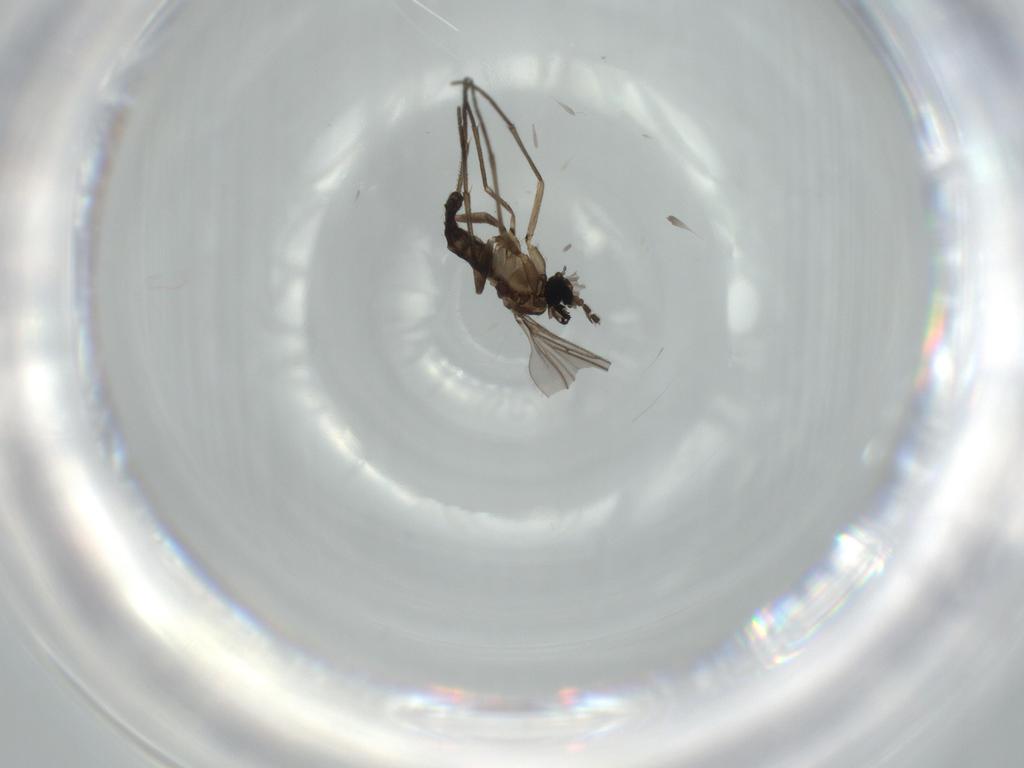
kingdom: Animalia
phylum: Arthropoda
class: Insecta
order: Diptera
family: Sciaridae
